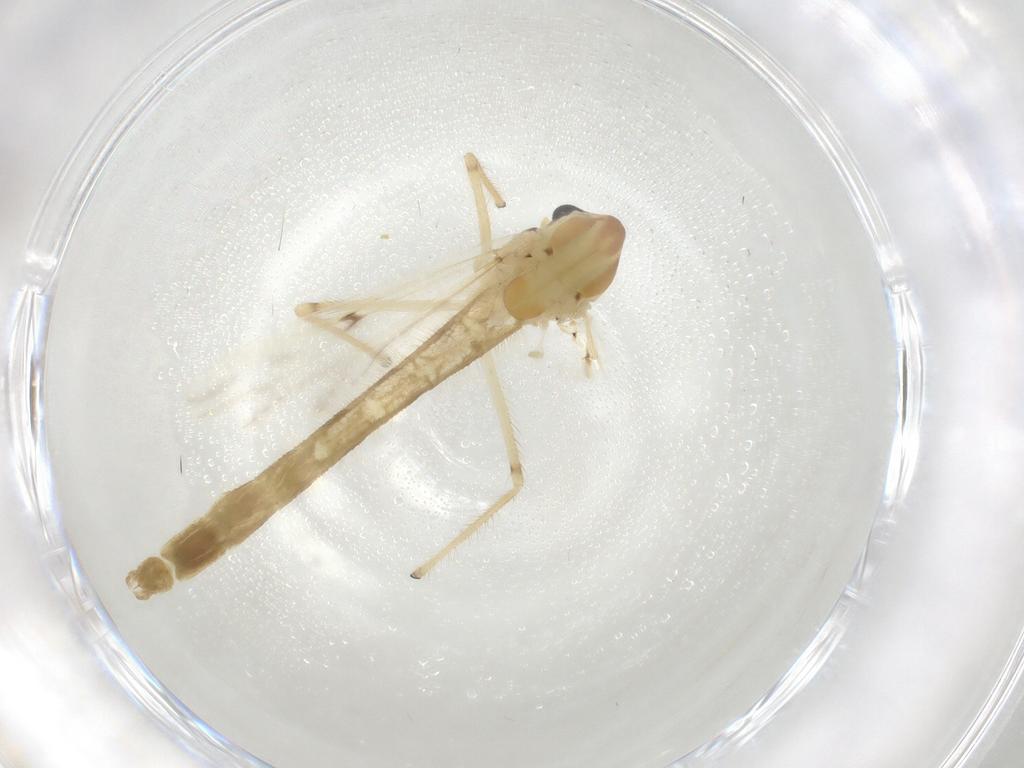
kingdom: Animalia
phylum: Arthropoda
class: Insecta
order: Diptera
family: Chironomidae
